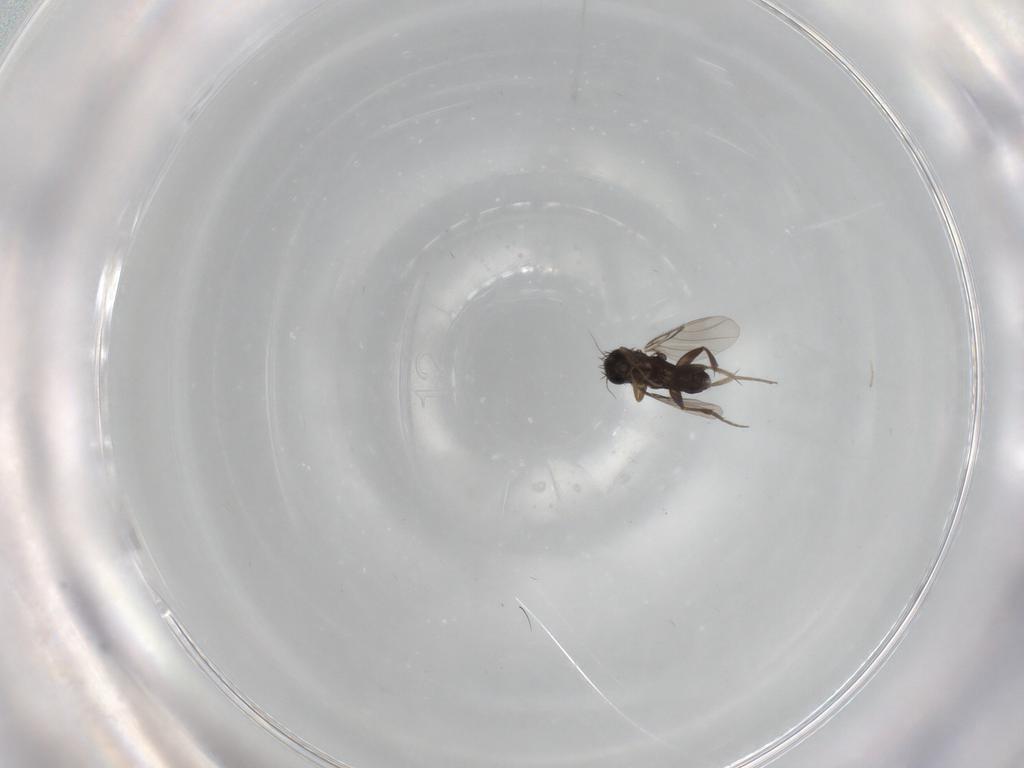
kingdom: Animalia
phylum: Arthropoda
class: Insecta
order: Diptera
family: Phoridae
